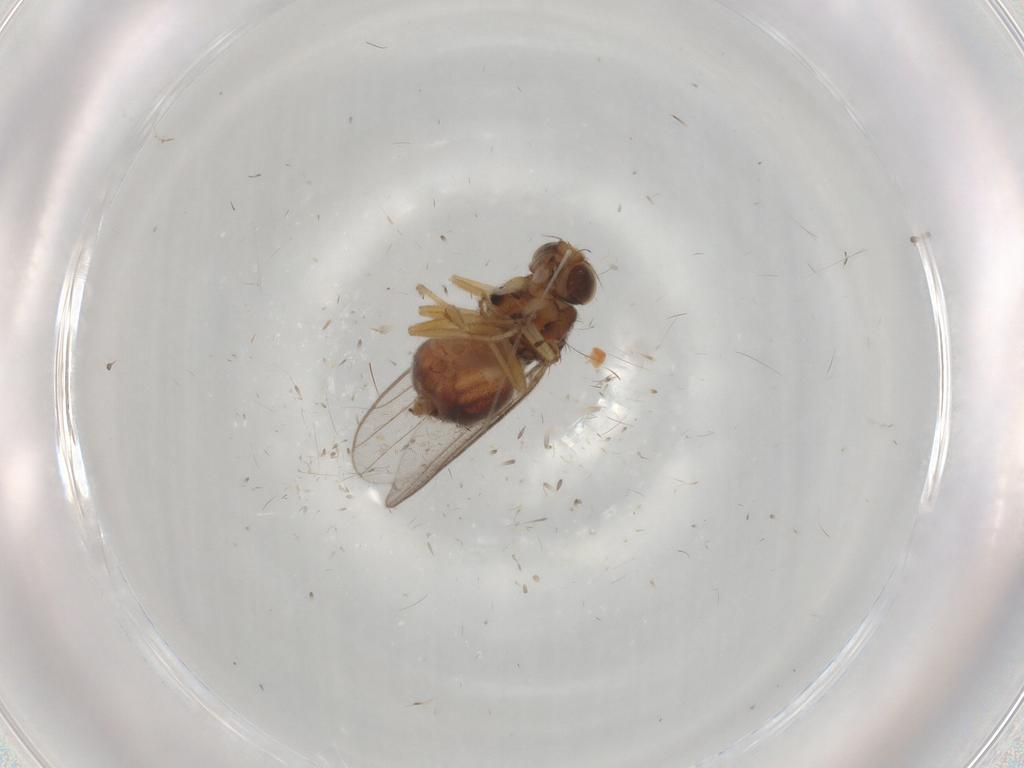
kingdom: Animalia
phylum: Arthropoda
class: Insecta
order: Diptera
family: Chloropidae
